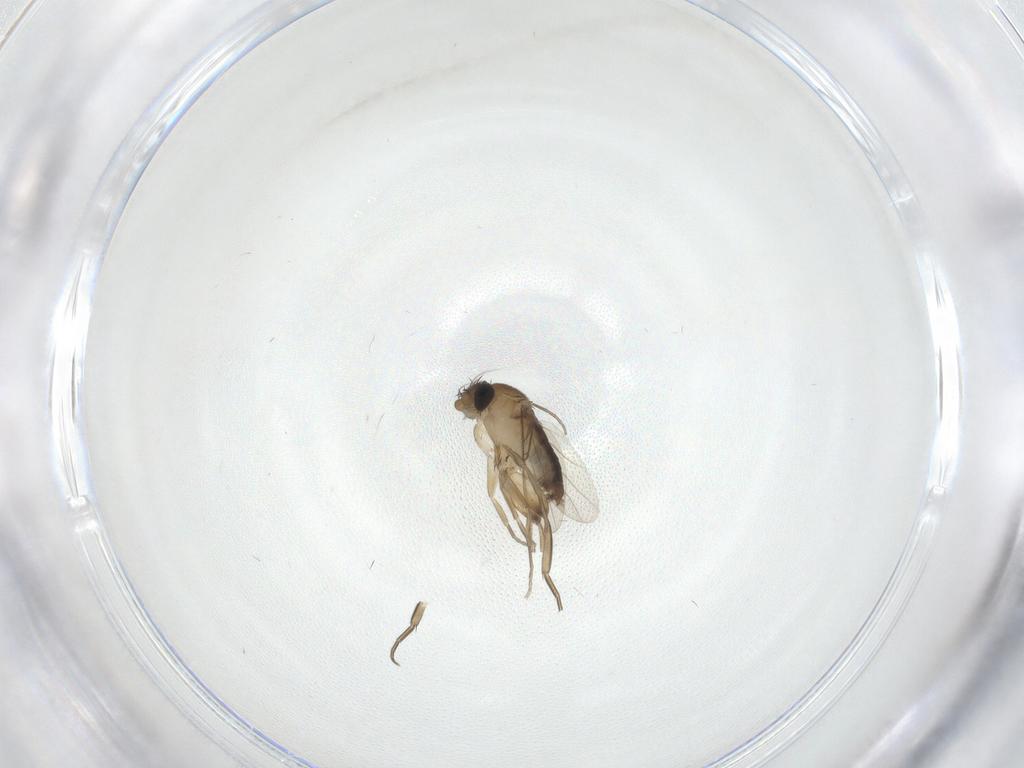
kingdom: Animalia
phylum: Arthropoda
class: Insecta
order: Diptera
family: Phoridae
